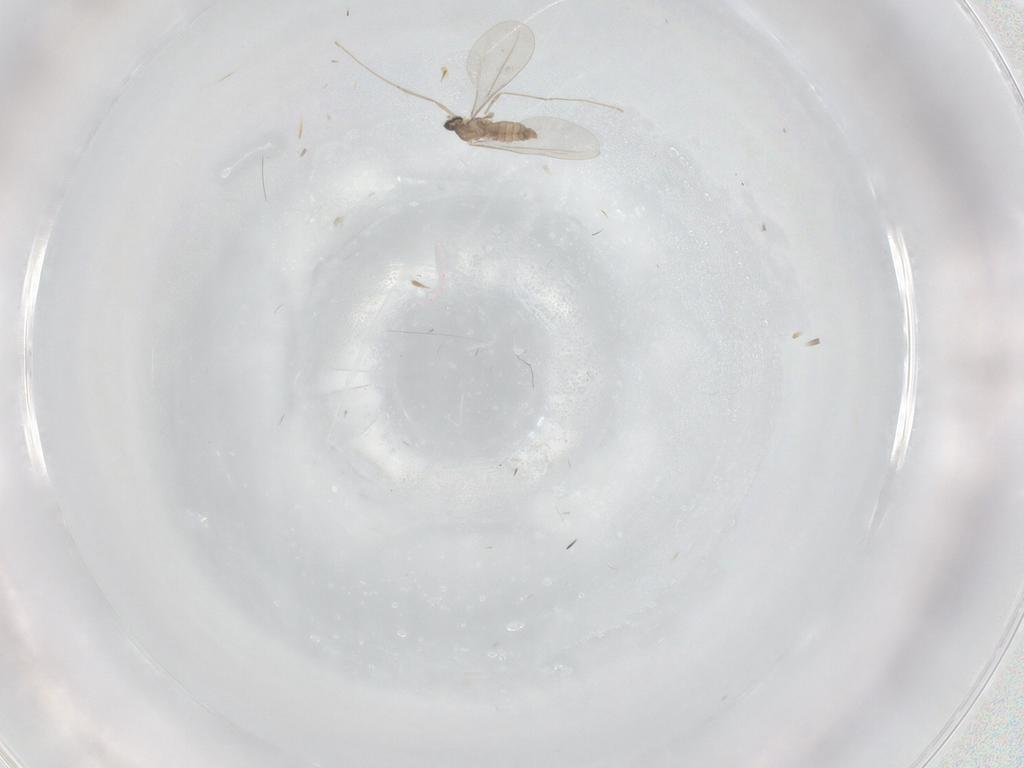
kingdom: Animalia
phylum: Arthropoda
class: Insecta
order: Diptera
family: Cecidomyiidae
